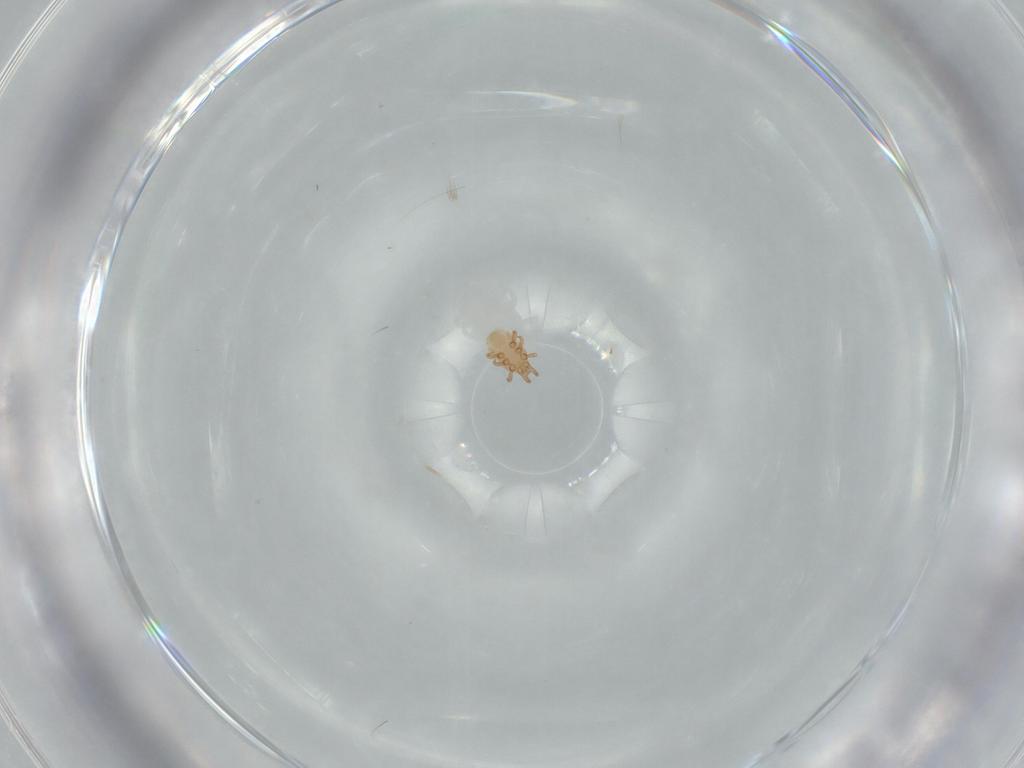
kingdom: Animalia
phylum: Arthropoda
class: Arachnida
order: Mesostigmata
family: Dinychidae
